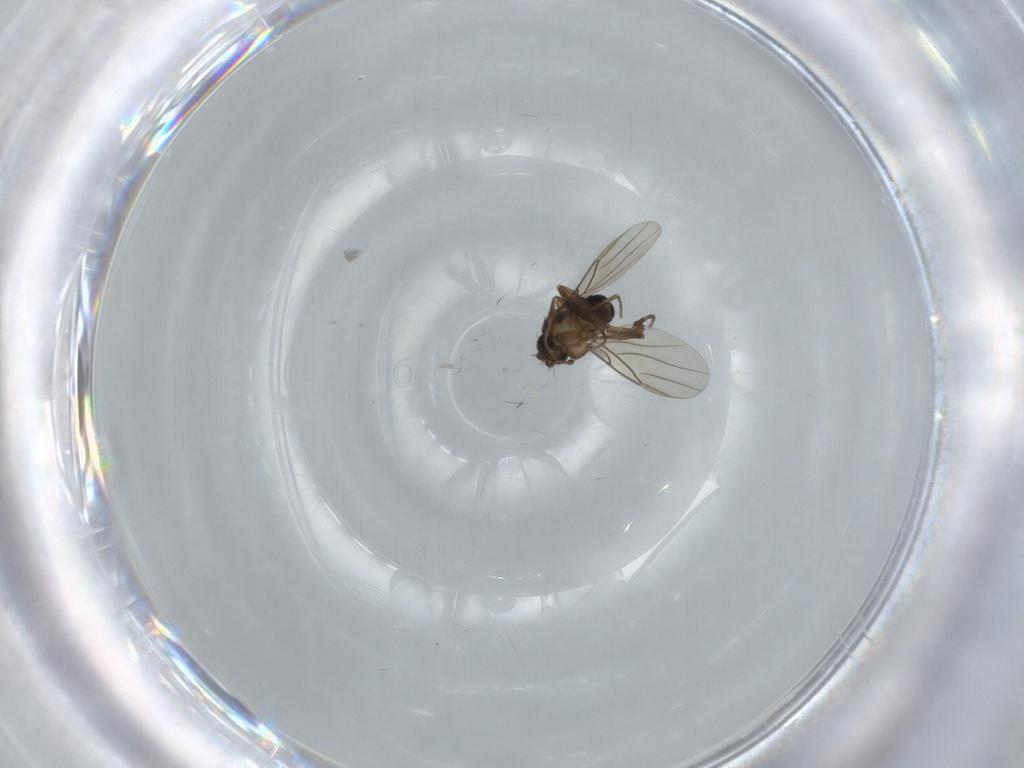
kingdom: Animalia
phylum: Arthropoda
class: Insecta
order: Diptera
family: Phoridae
